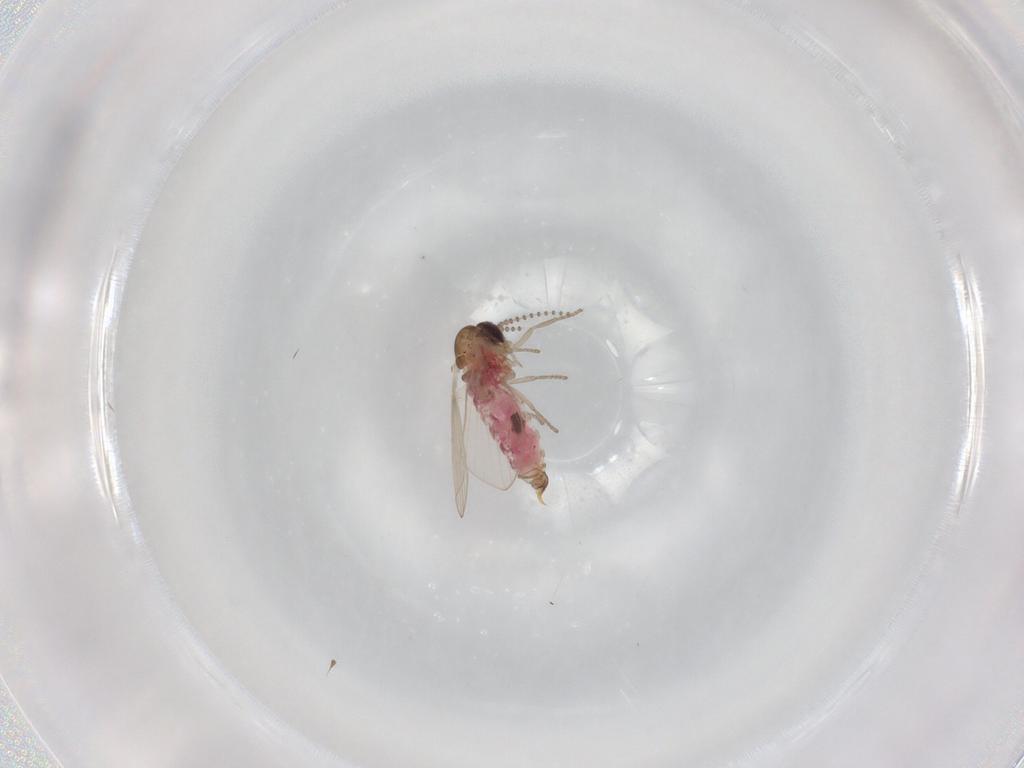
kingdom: Animalia
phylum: Arthropoda
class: Insecta
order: Diptera
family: Psychodidae
